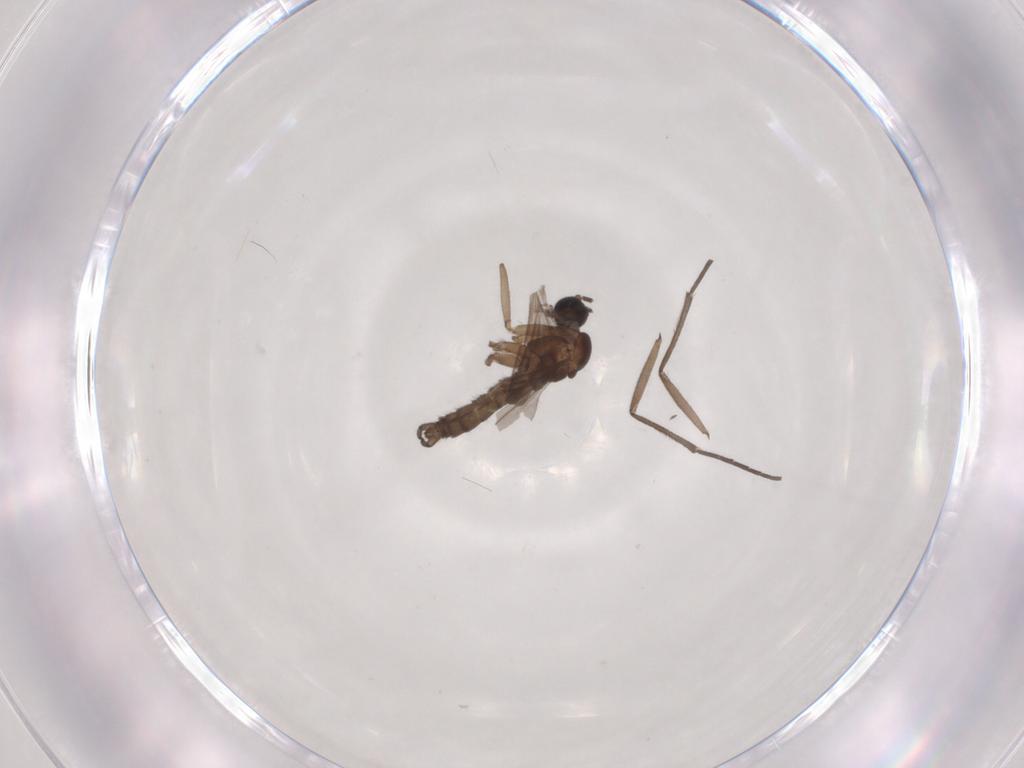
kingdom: Animalia
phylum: Arthropoda
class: Insecta
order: Diptera
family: Sciaridae
